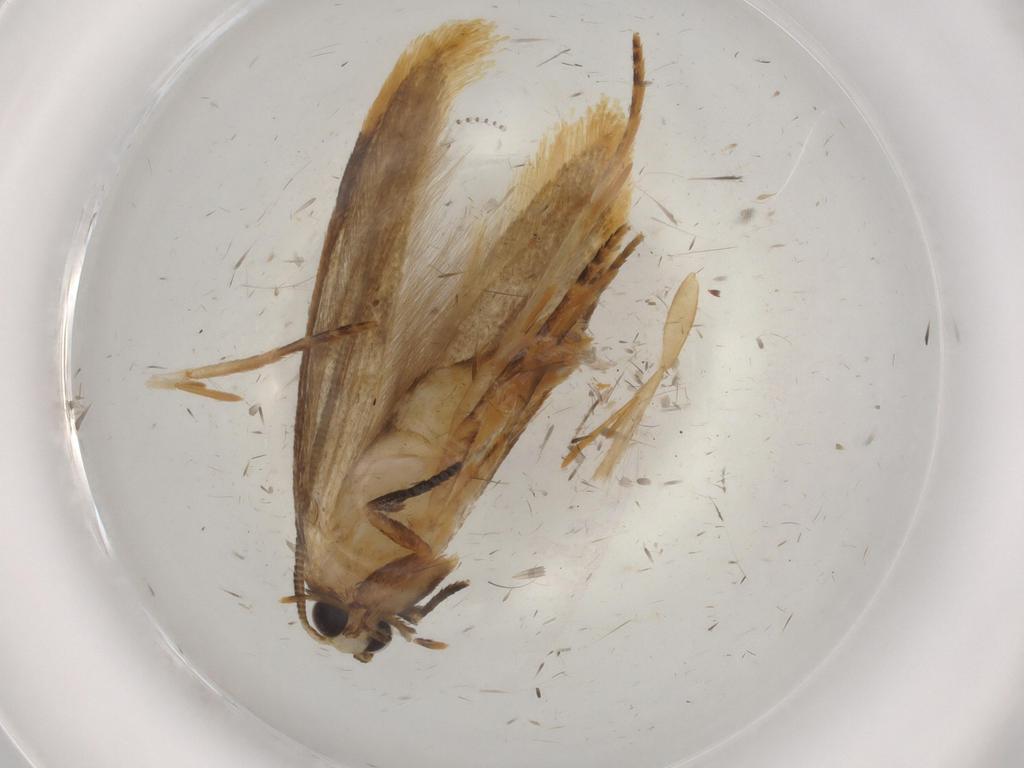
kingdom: Animalia
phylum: Arthropoda
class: Insecta
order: Lepidoptera
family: Tineidae
